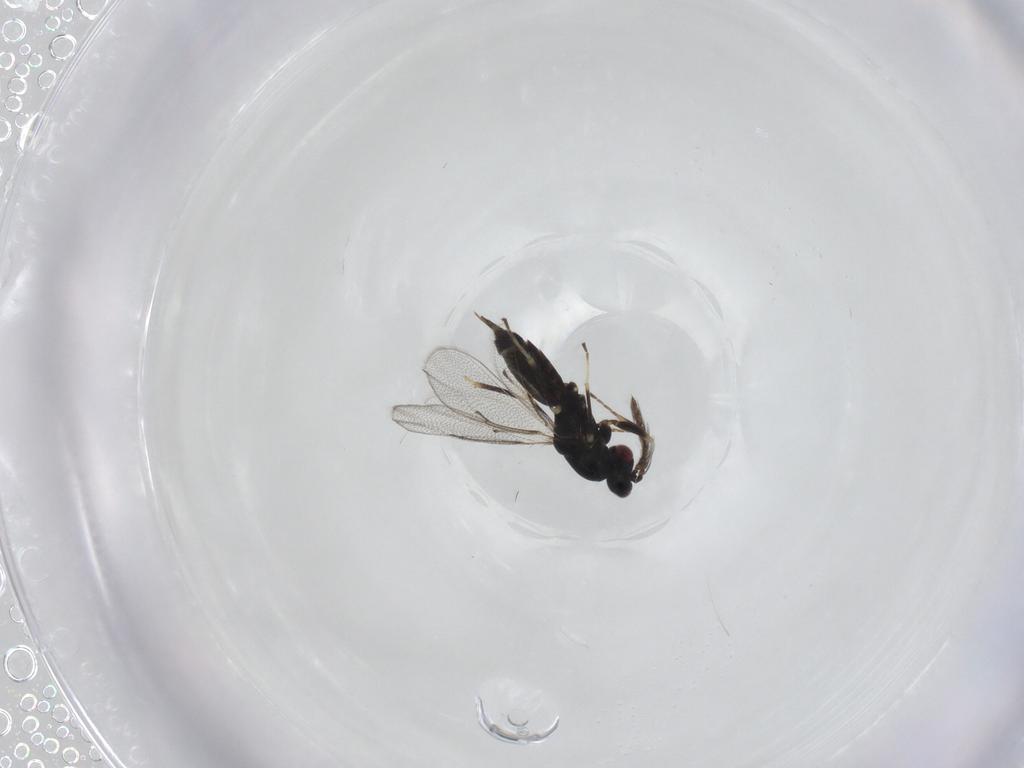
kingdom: Animalia
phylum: Arthropoda
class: Insecta
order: Hymenoptera
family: Eulophidae
